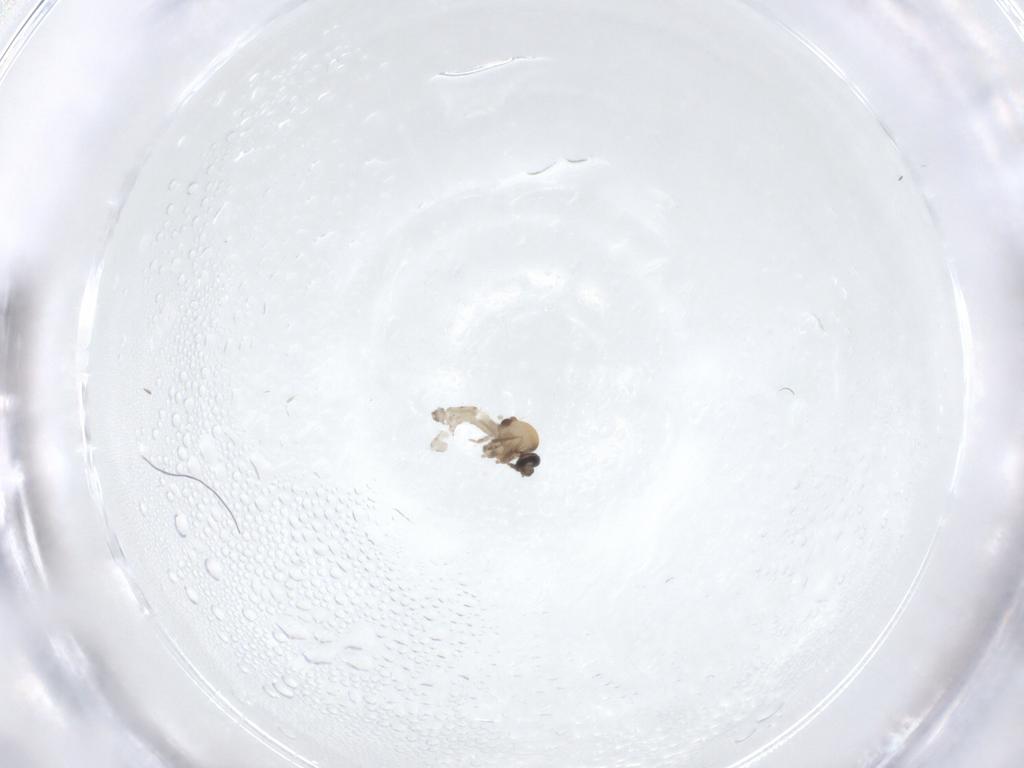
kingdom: Animalia
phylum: Arthropoda
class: Insecta
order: Diptera
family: Ceratopogonidae
